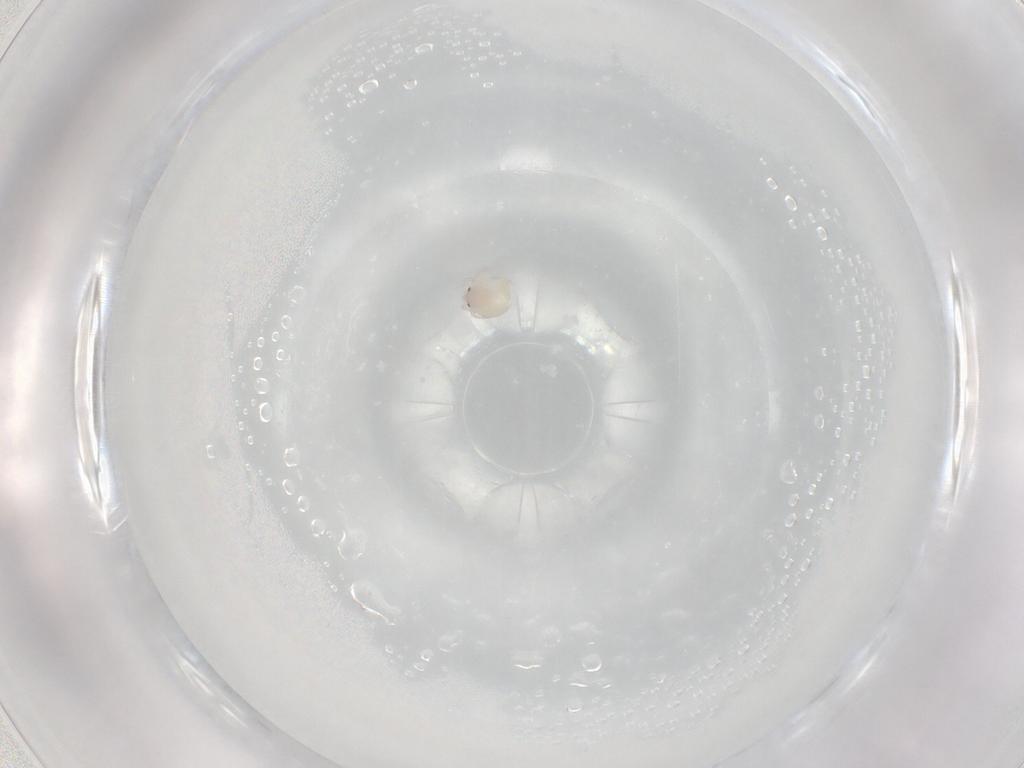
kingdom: Animalia
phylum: Arthropoda
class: Arachnida
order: Trombidiformes
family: Lebertiidae
